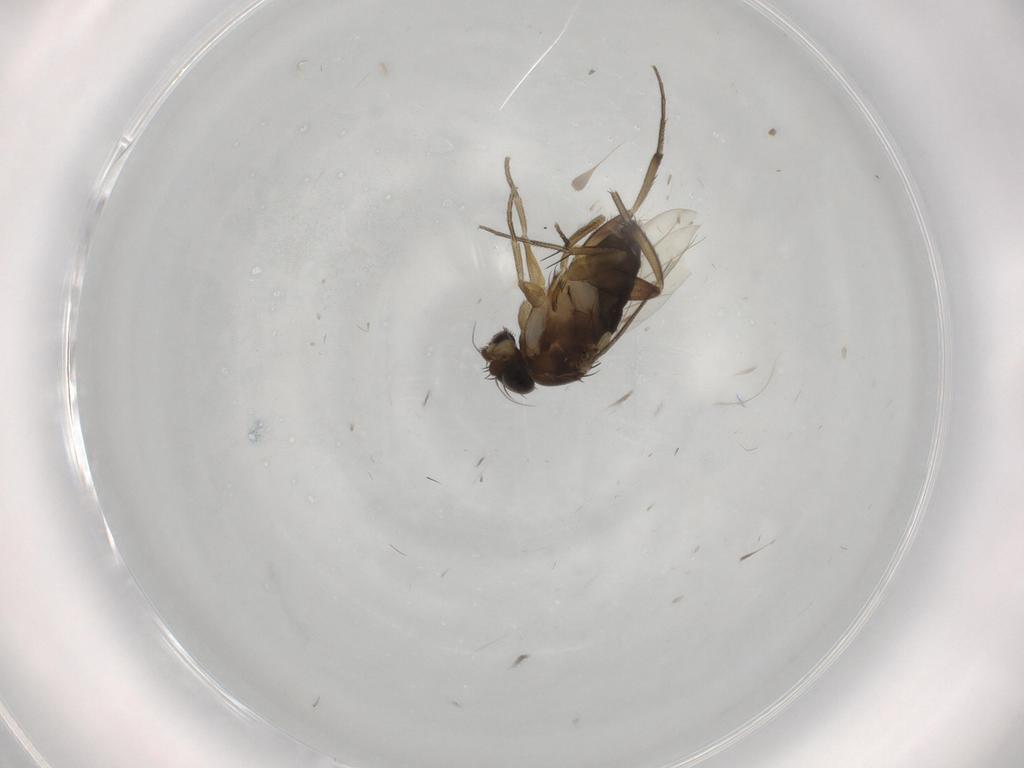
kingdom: Animalia
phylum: Arthropoda
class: Insecta
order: Diptera
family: Phoridae
